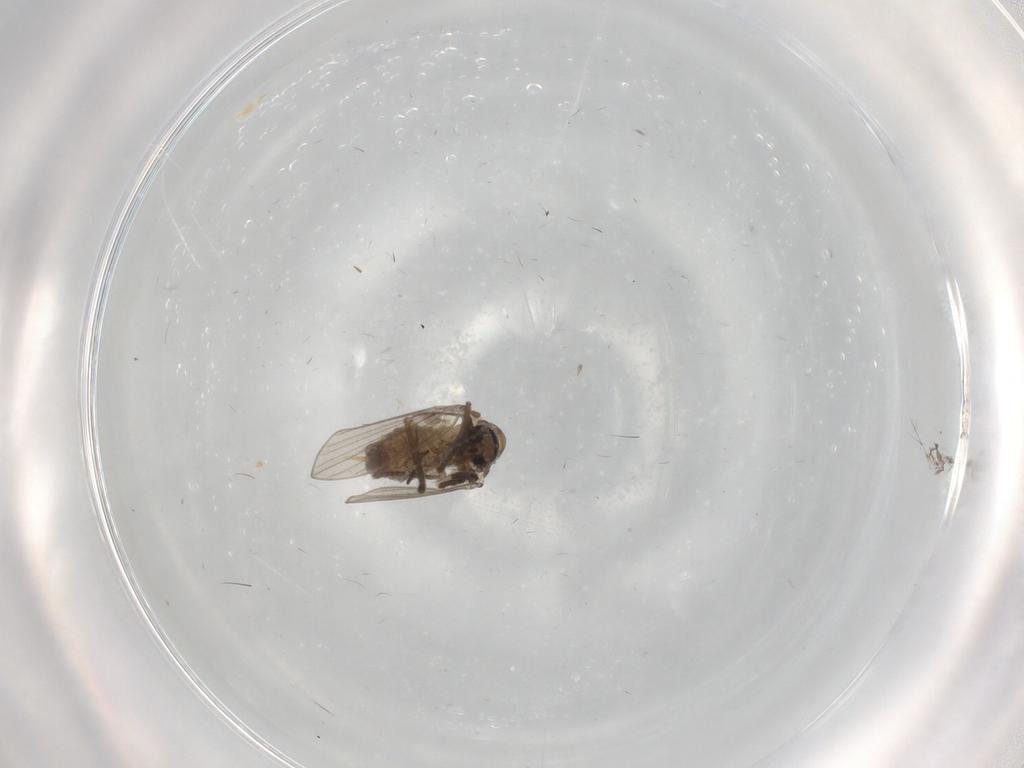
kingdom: Animalia
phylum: Arthropoda
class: Insecta
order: Diptera
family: Psychodidae
